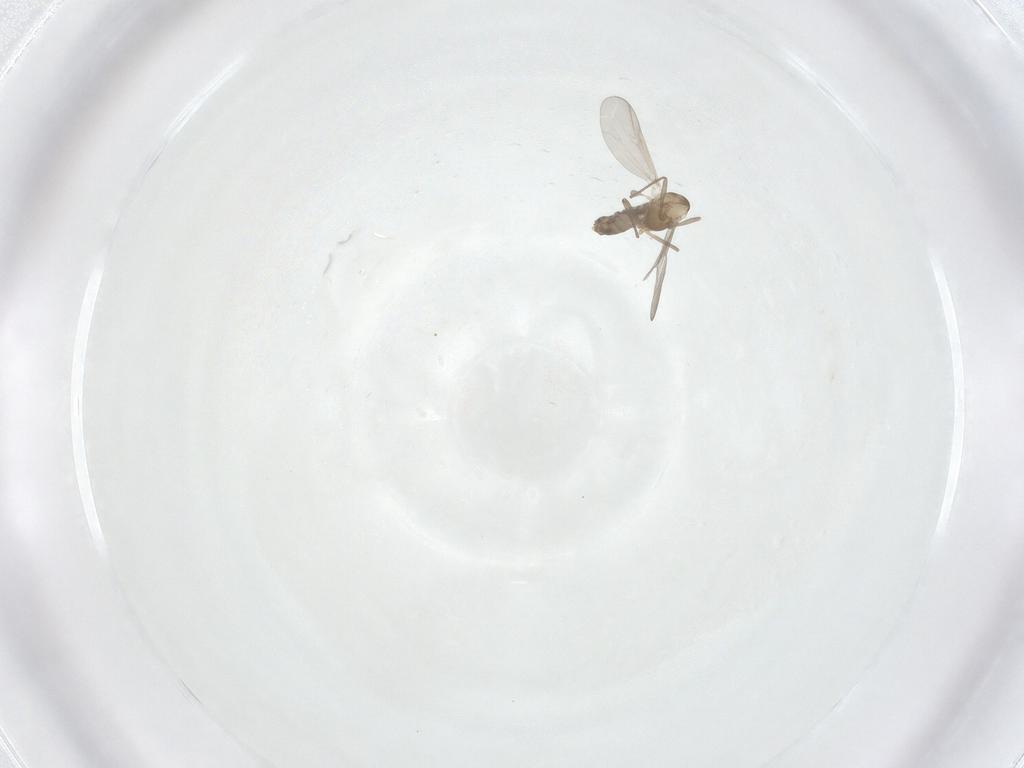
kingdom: Animalia
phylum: Arthropoda
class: Insecta
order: Diptera
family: Chironomidae
